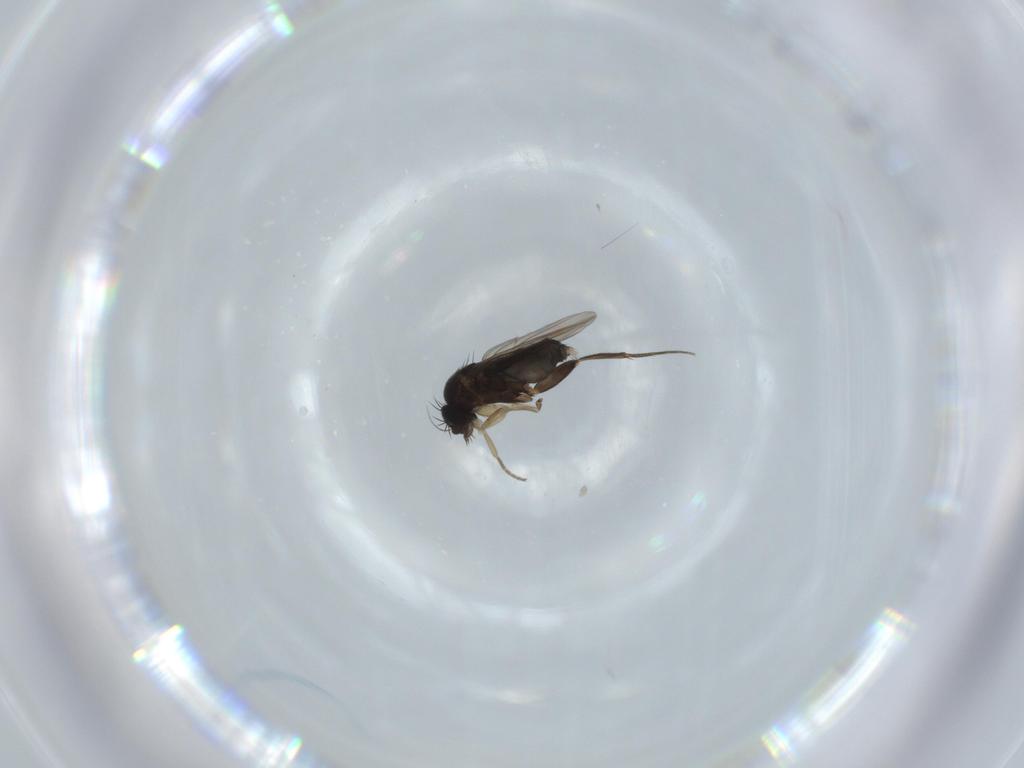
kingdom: Animalia
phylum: Arthropoda
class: Insecta
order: Diptera
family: Phoridae
